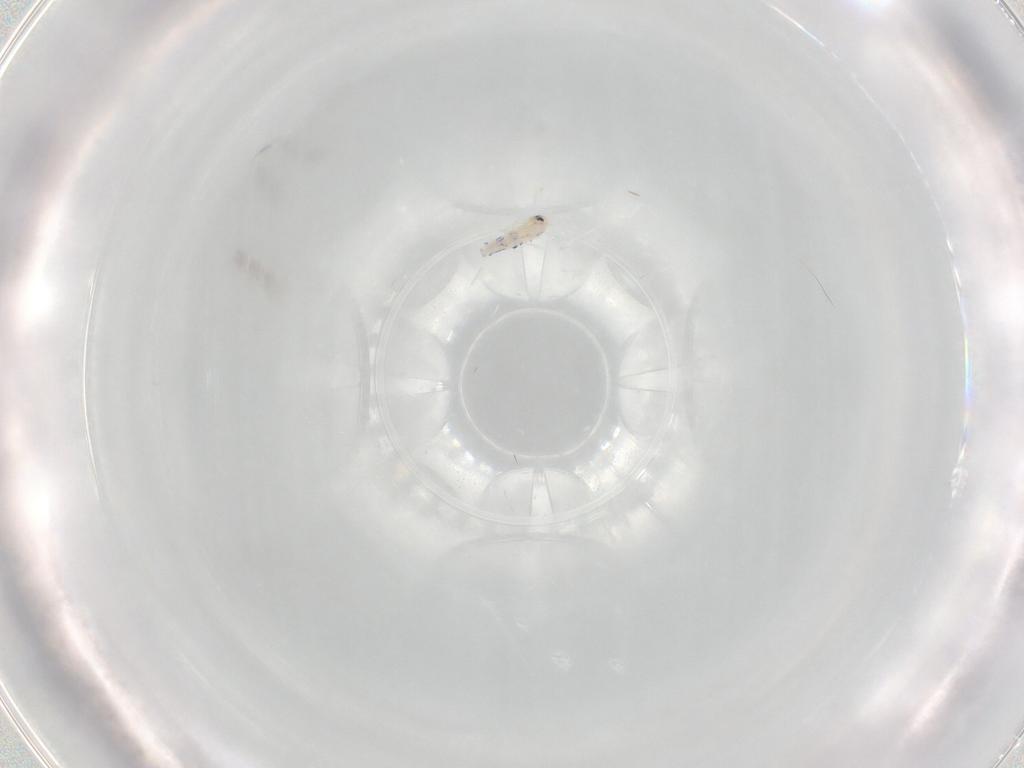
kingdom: Animalia
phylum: Arthropoda
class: Collembola
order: Entomobryomorpha
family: Entomobryidae
